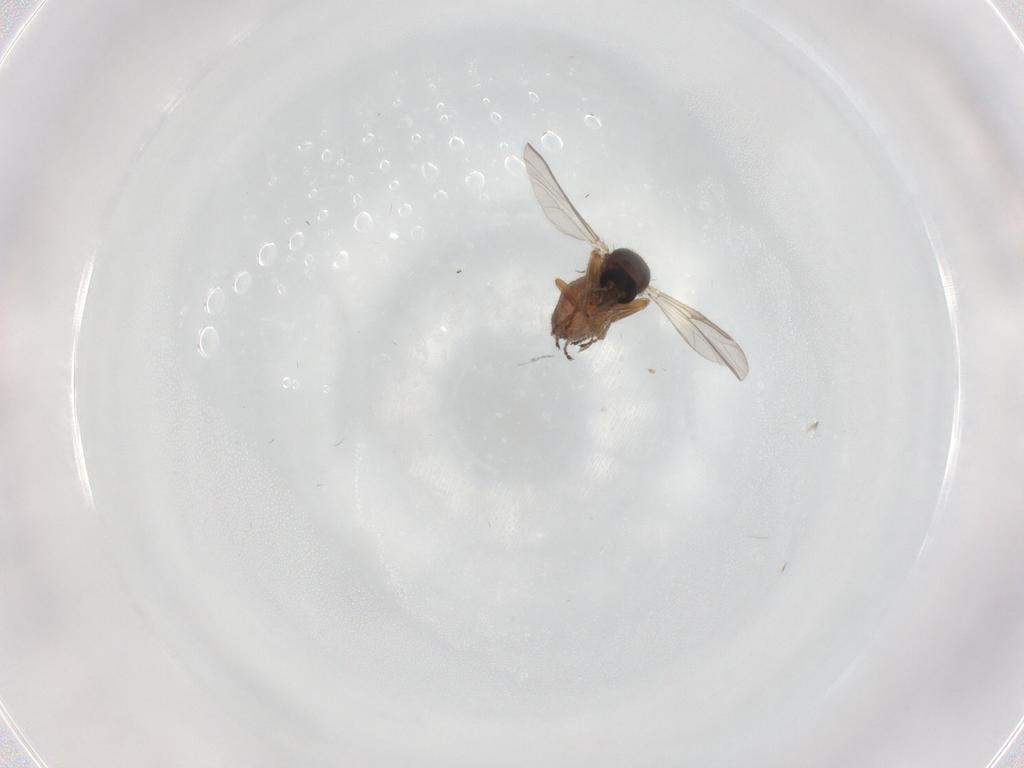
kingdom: Animalia
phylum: Arthropoda
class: Insecta
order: Diptera
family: Ceratopogonidae
